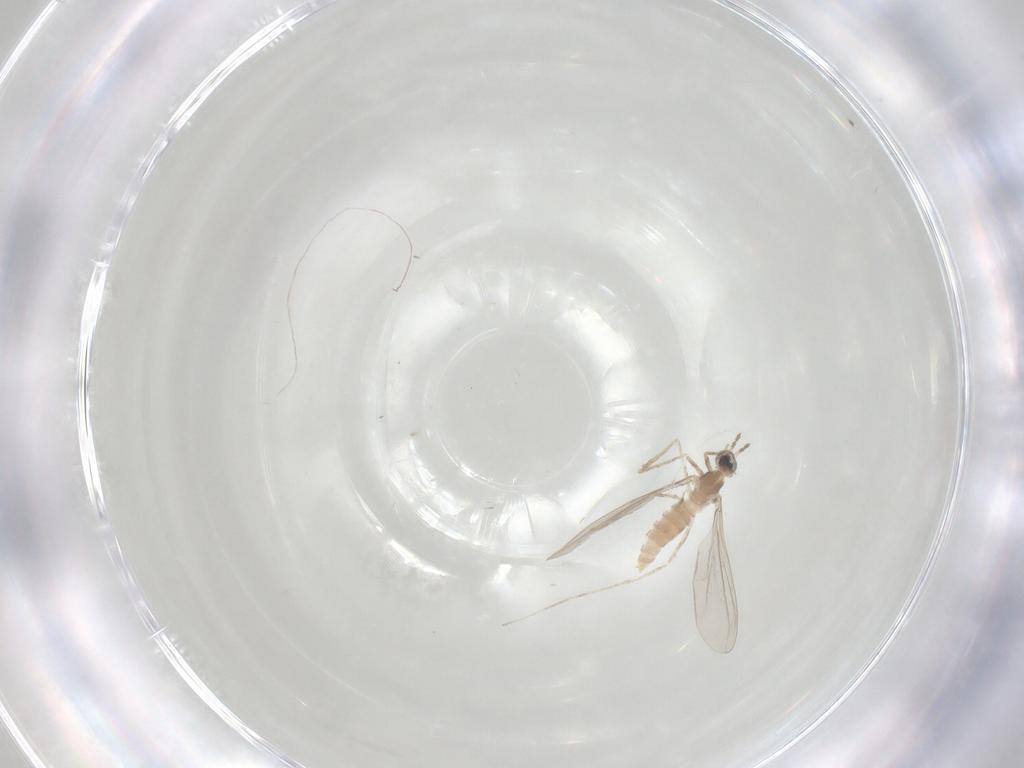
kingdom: Animalia
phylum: Arthropoda
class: Insecta
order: Diptera
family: Cecidomyiidae
